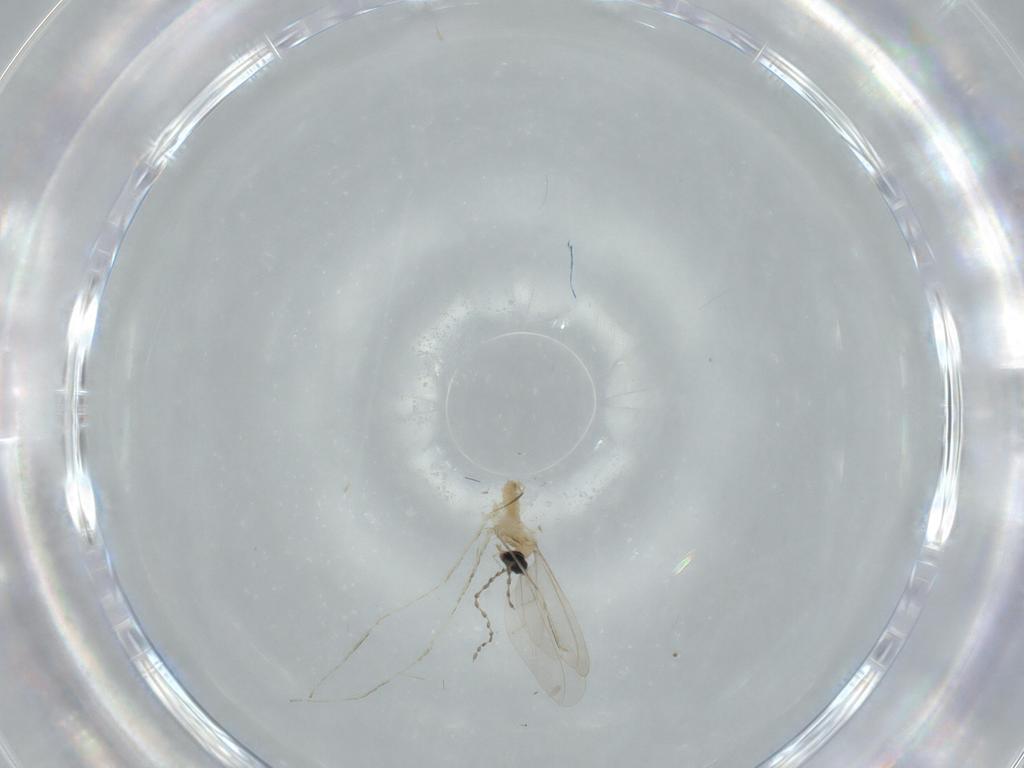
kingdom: Animalia
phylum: Arthropoda
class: Insecta
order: Diptera
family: Cecidomyiidae
